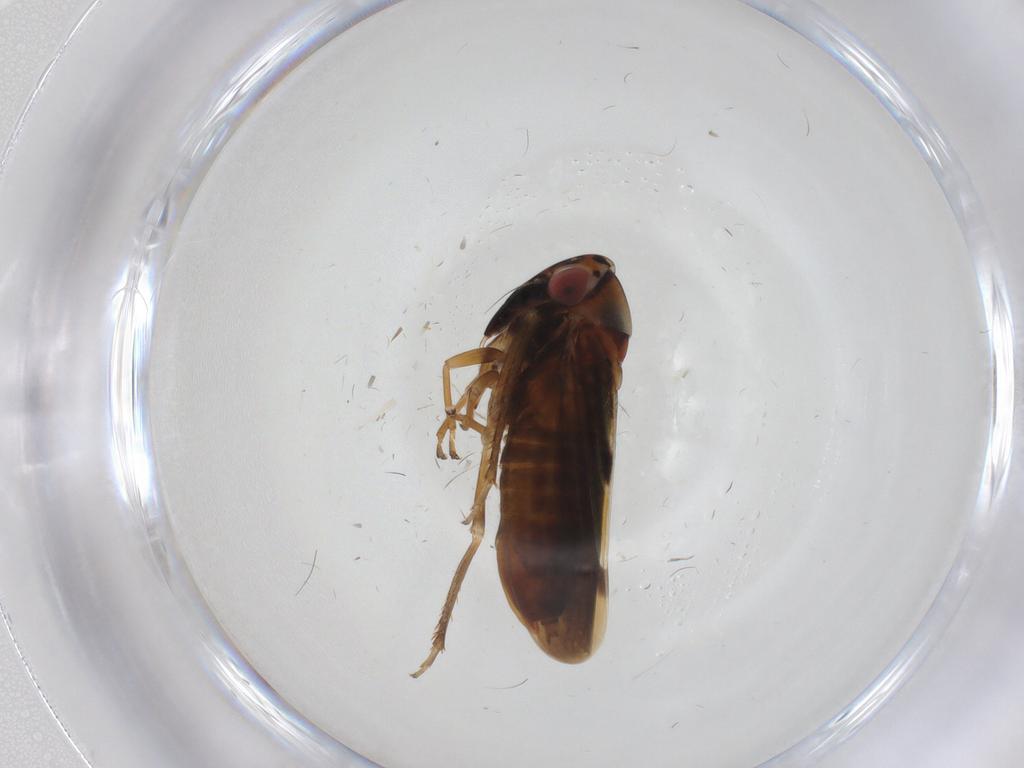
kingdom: Animalia
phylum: Arthropoda
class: Insecta
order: Hemiptera
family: Cicadellidae
